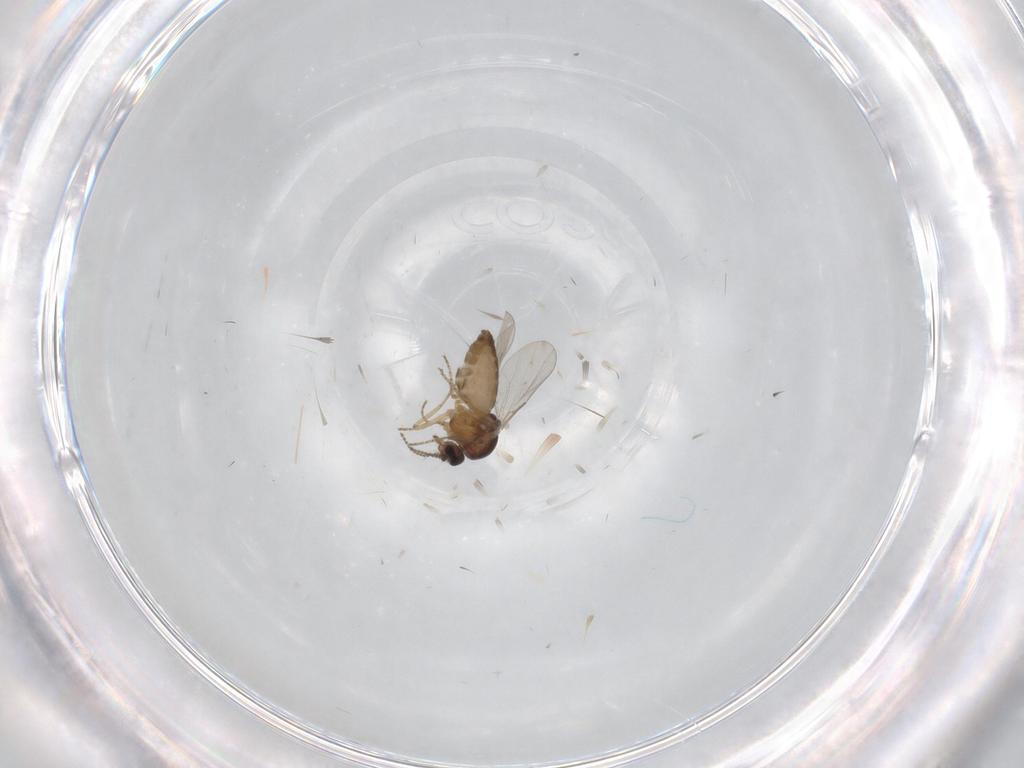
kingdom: Animalia
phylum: Arthropoda
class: Insecta
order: Diptera
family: Ceratopogonidae
